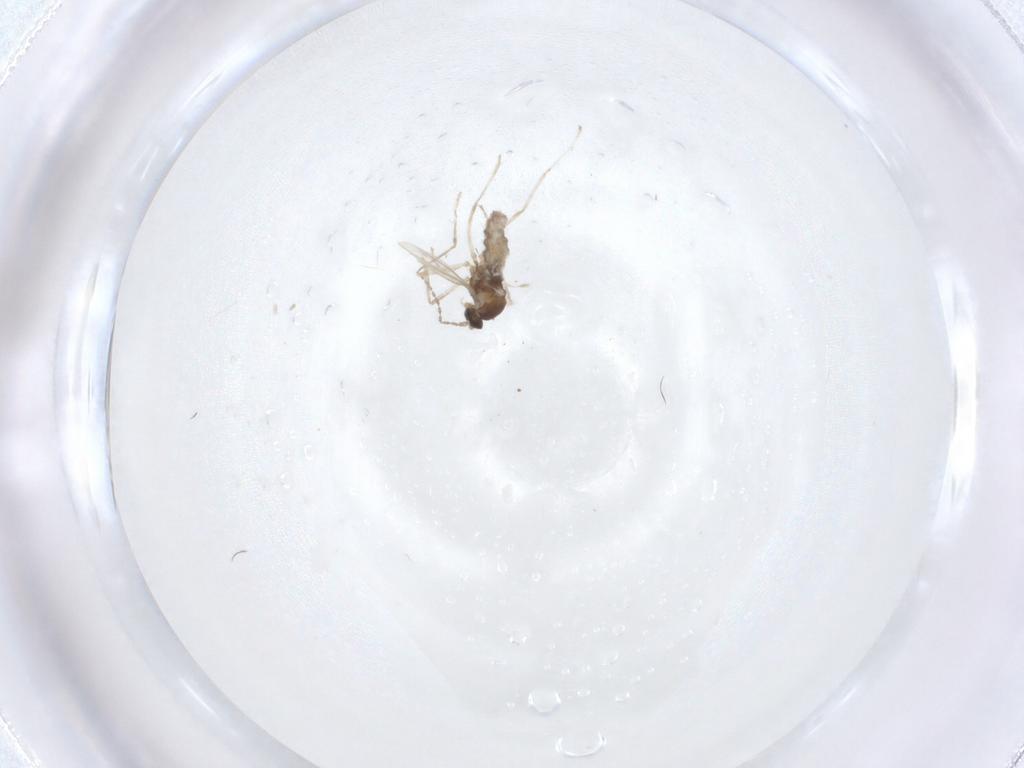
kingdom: Animalia
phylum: Arthropoda
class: Insecta
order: Diptera
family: Cecidomyiidae
